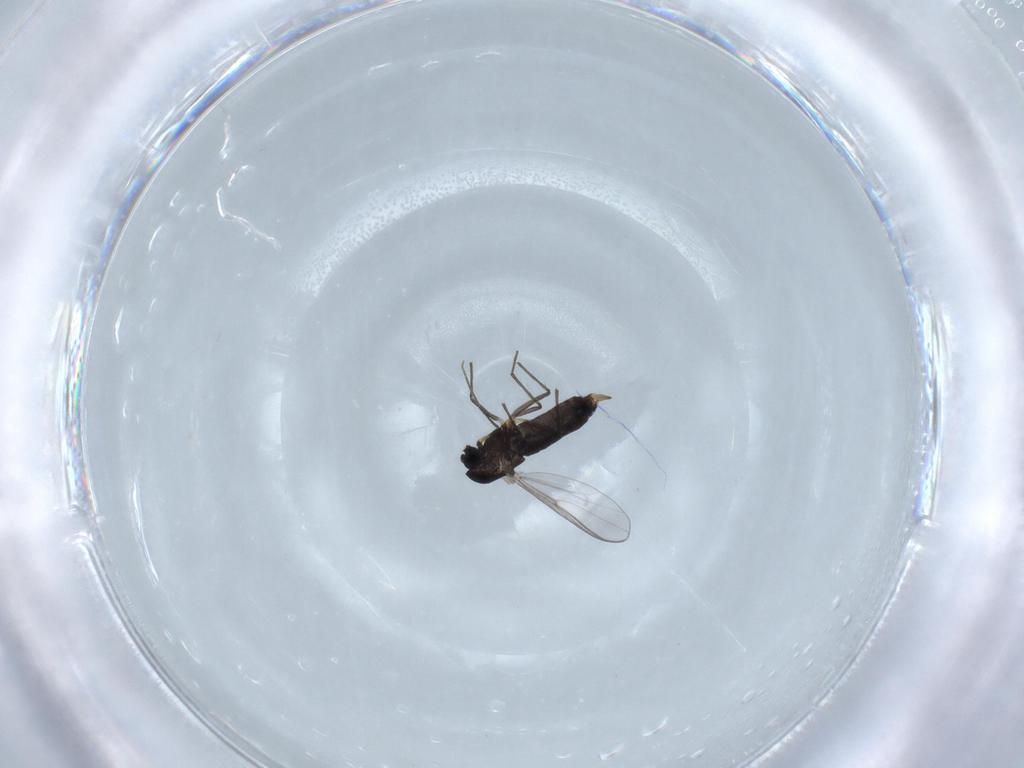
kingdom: Animalia
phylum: Arthropoda
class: Insecta
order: Diptera
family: Chironomidae
